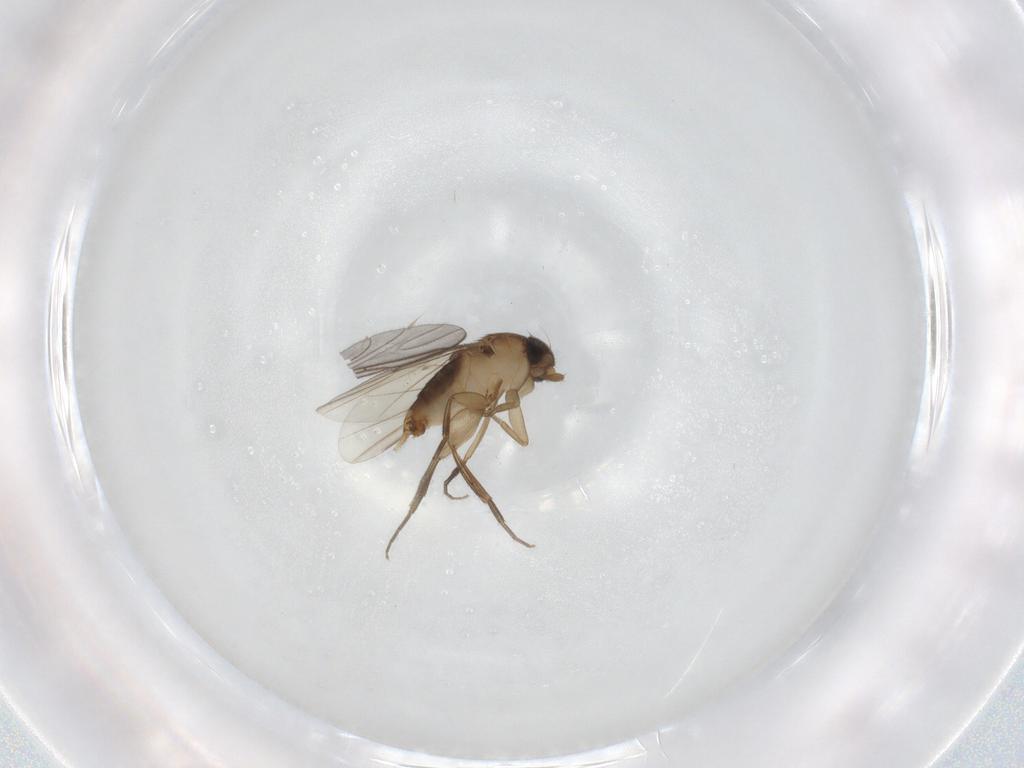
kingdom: Animalia
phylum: Arthropoda
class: Insecta
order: Diptera
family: Phoridae
